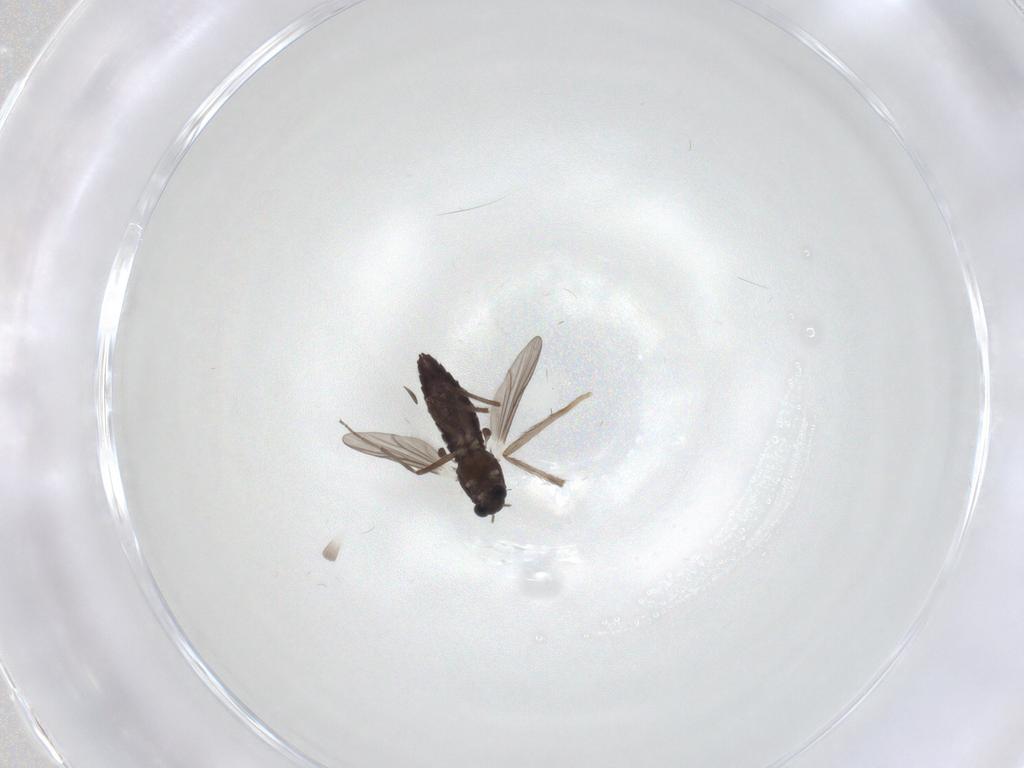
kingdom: Animalia
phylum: Arthropoda
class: Insecta
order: Diptera
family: Chironomidae
